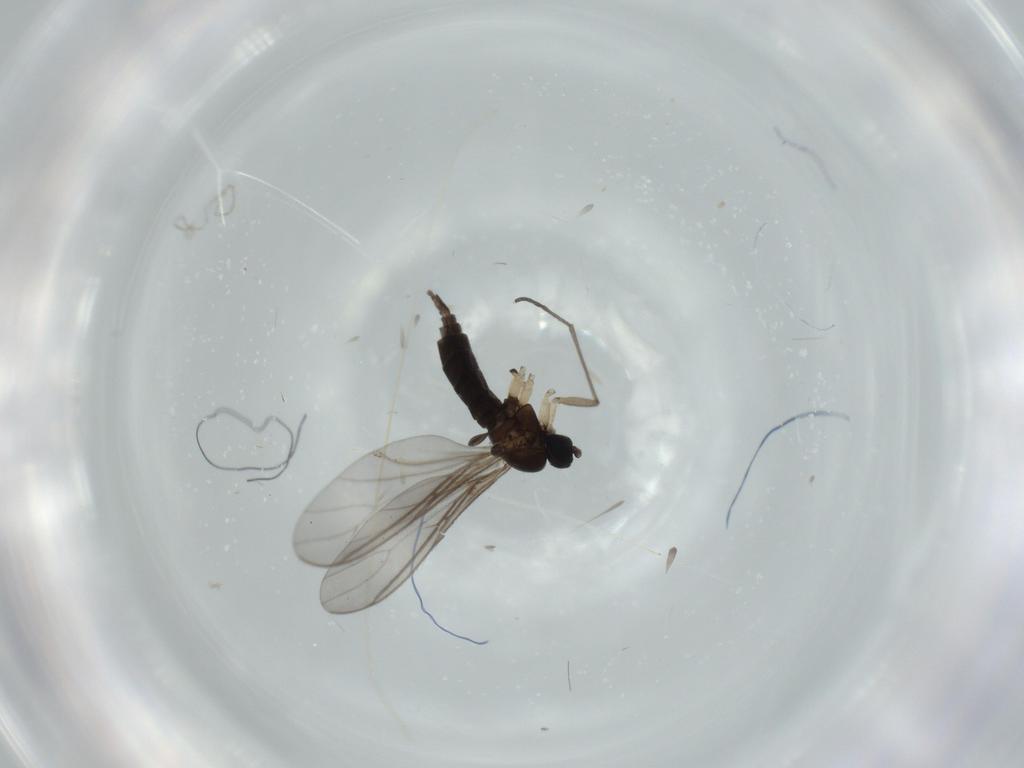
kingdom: Animalia
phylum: Arthropoda
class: Insecta
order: Diptera
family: Cecidomyiidae
